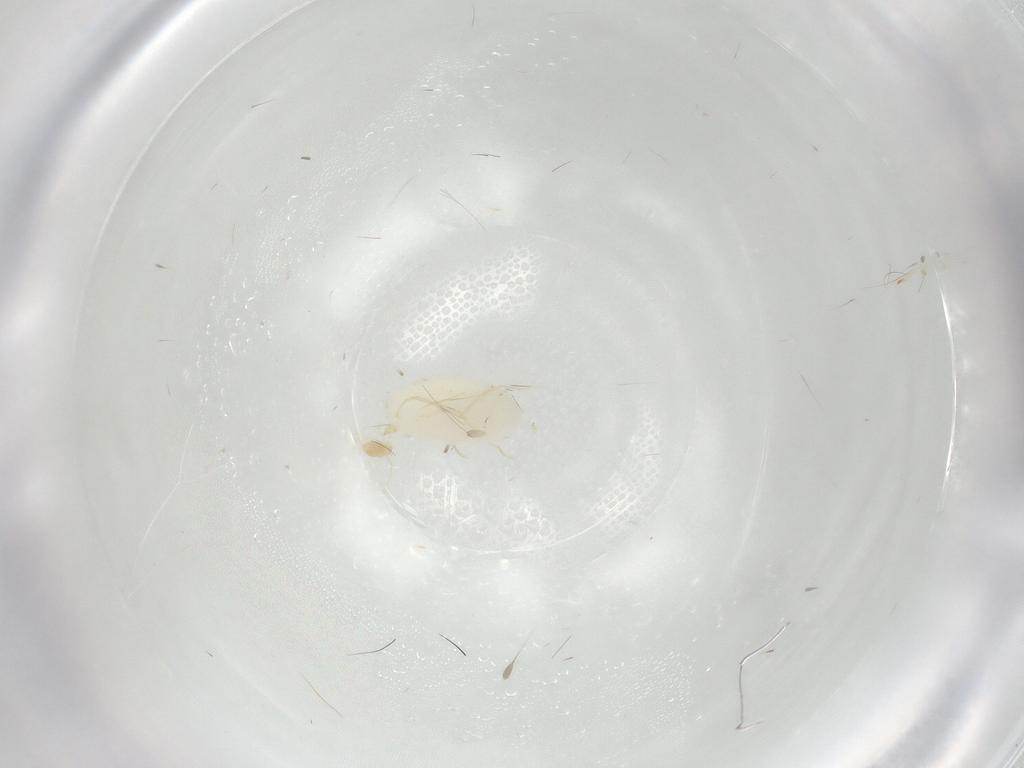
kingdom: Animalia
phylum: Arthropoda
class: Arachnida
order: Trombidiformes
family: Erythraeidae
